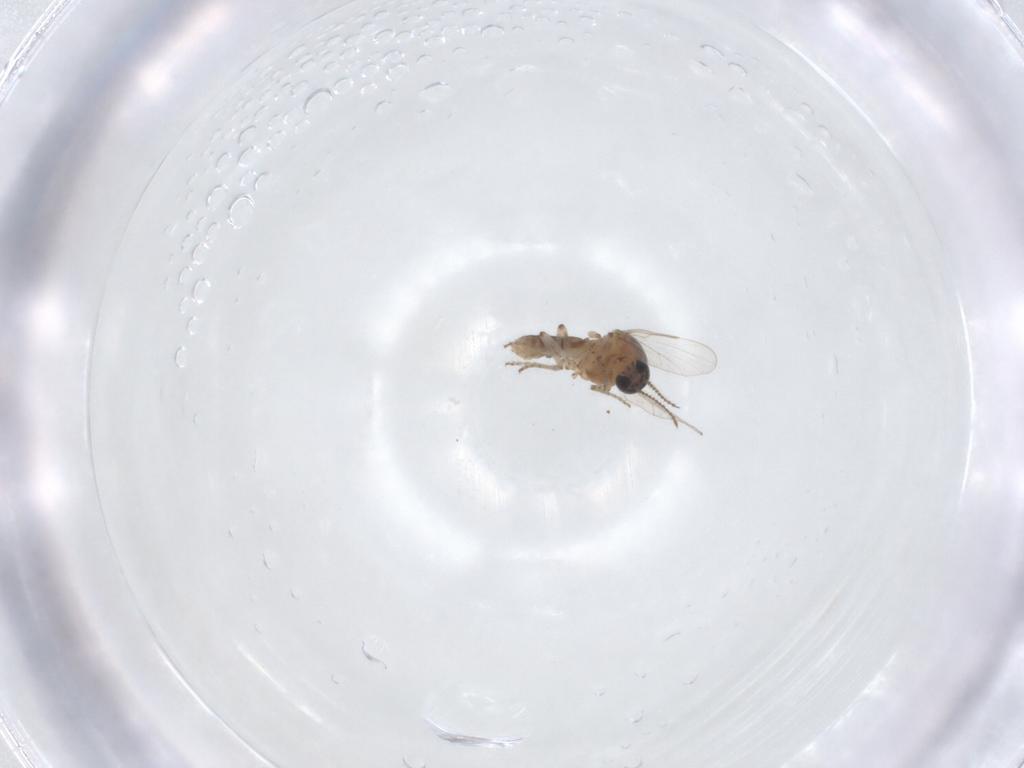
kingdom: Animalia
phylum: Arthropoda
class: Insecta
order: Diptera
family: Ceratopogonidae
